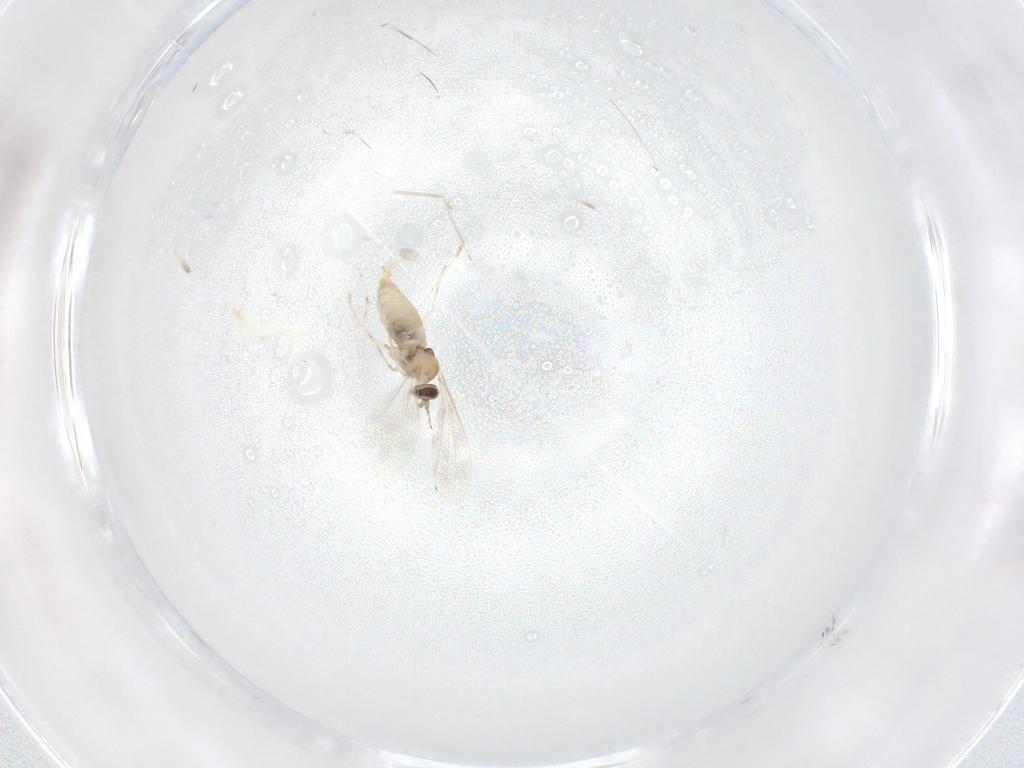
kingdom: Animalia
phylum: Arthropoda
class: Insecta
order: Diptera
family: Cecidomyiidae
